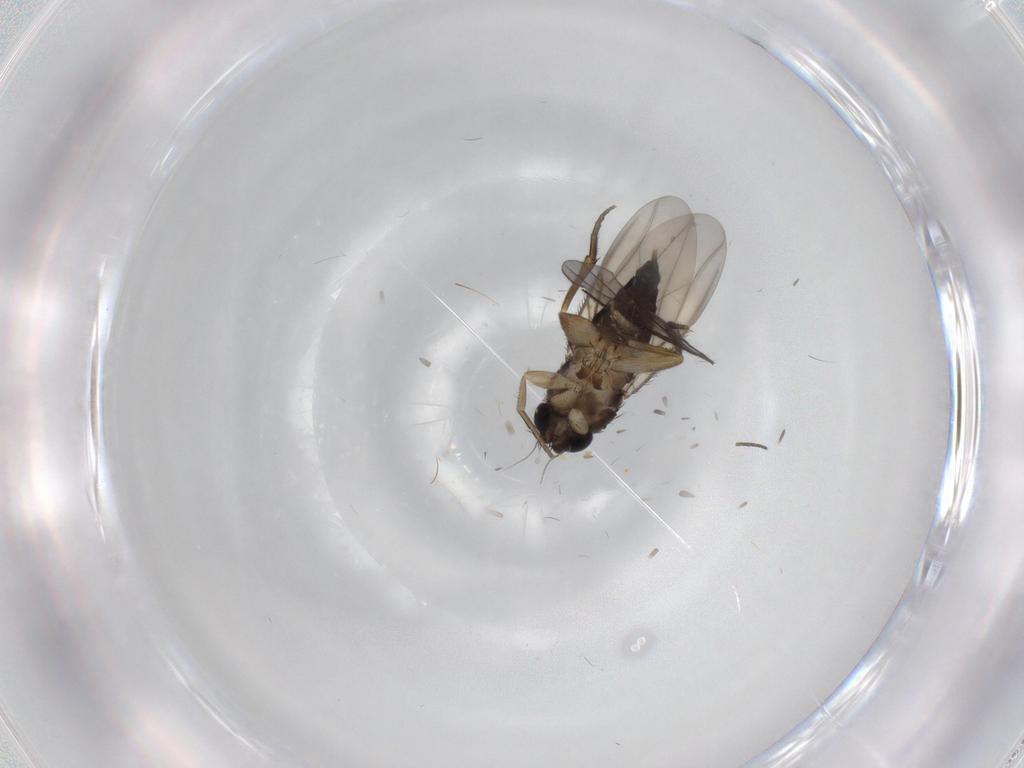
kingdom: Animalia
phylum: Arthropoda
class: Insecta
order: Diptera
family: Phoridae
